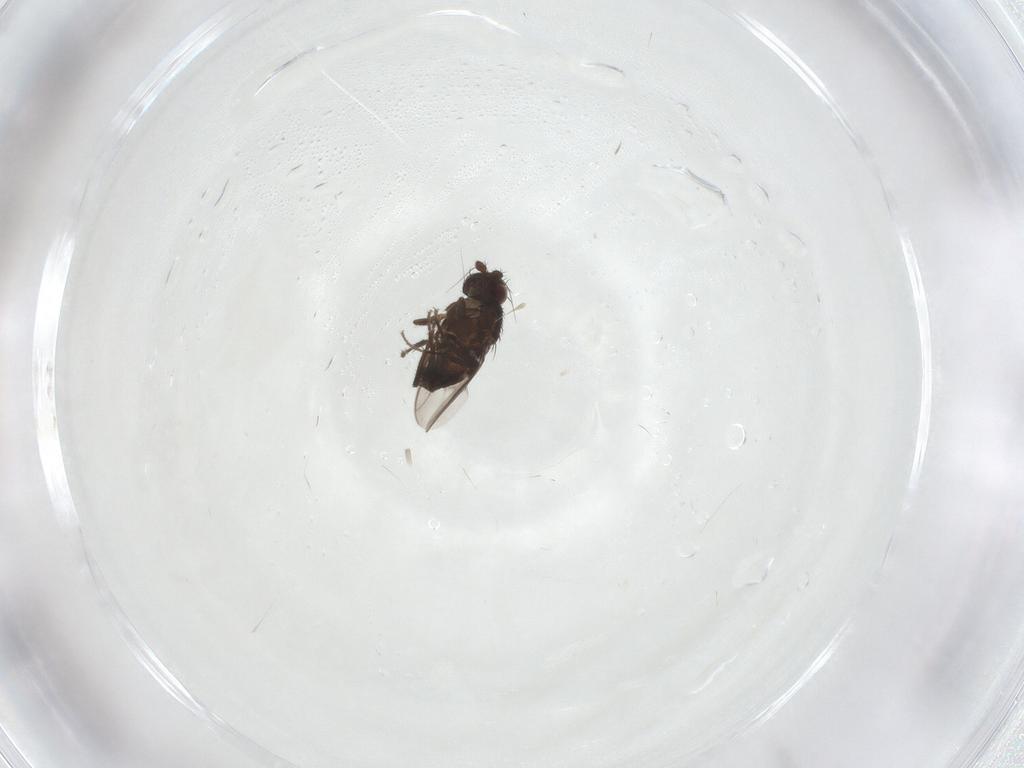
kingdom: Animalia
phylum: Arthropoda
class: Insecta
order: Diptera
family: Sphaeroceridae
